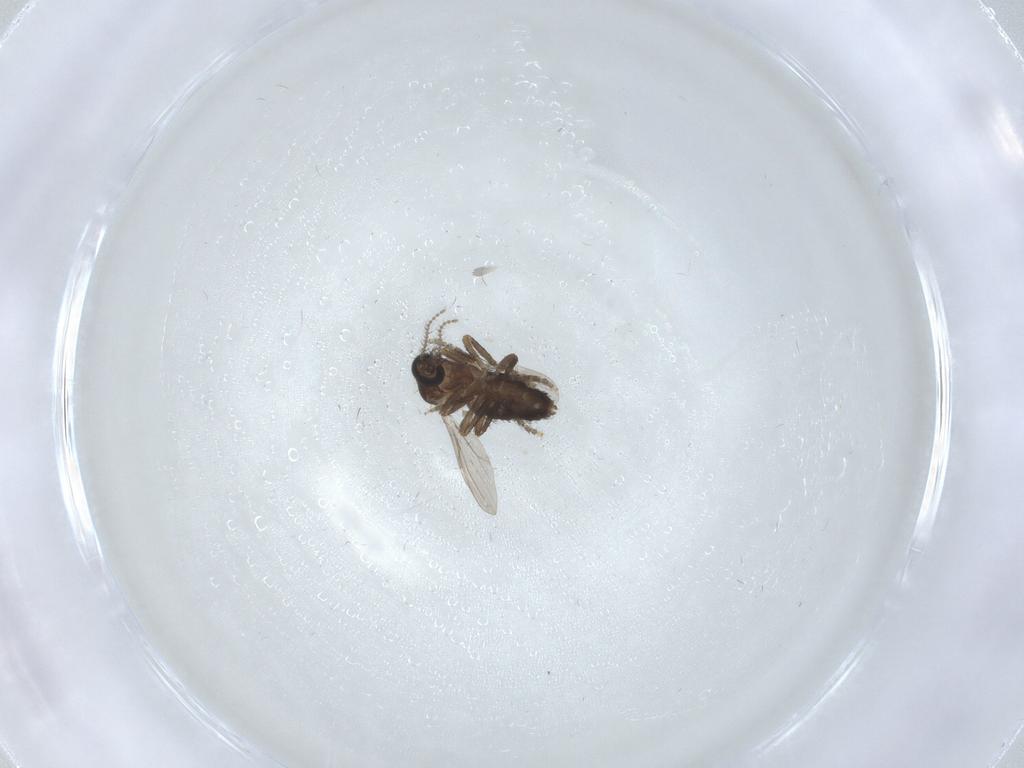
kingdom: Animalia
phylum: Arthropoda
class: Insecta
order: Diptera
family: Ceratopogonidae
